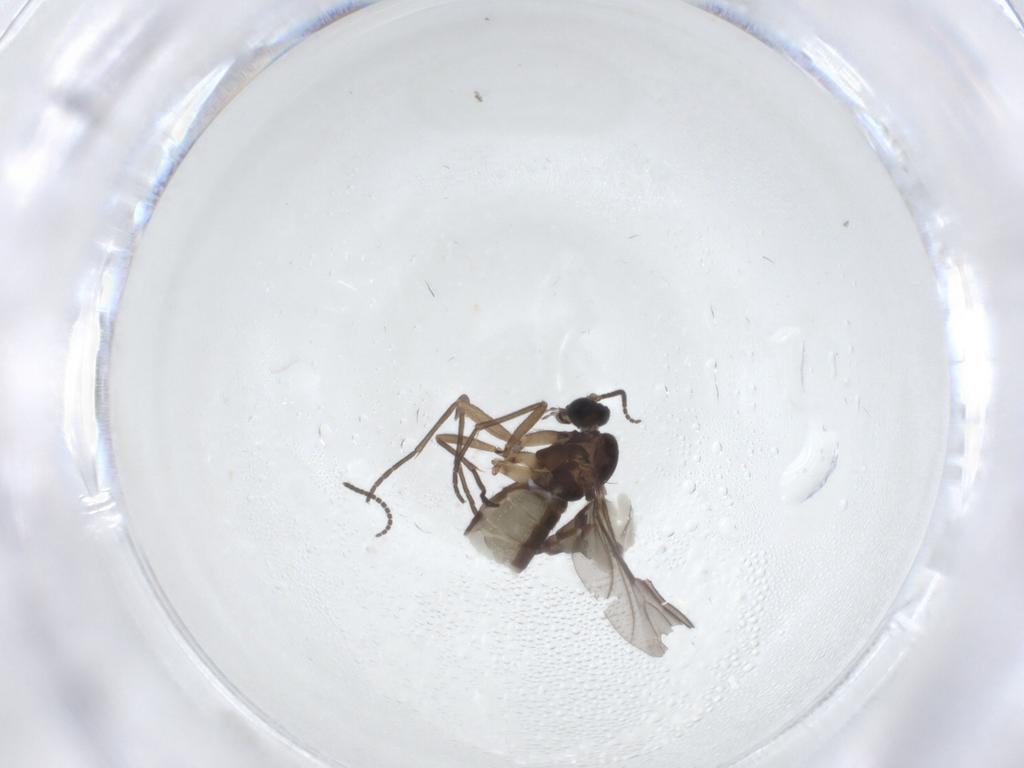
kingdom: Animalia
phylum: Arthropoda
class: Insecta
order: Diptera
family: Sciaridae
